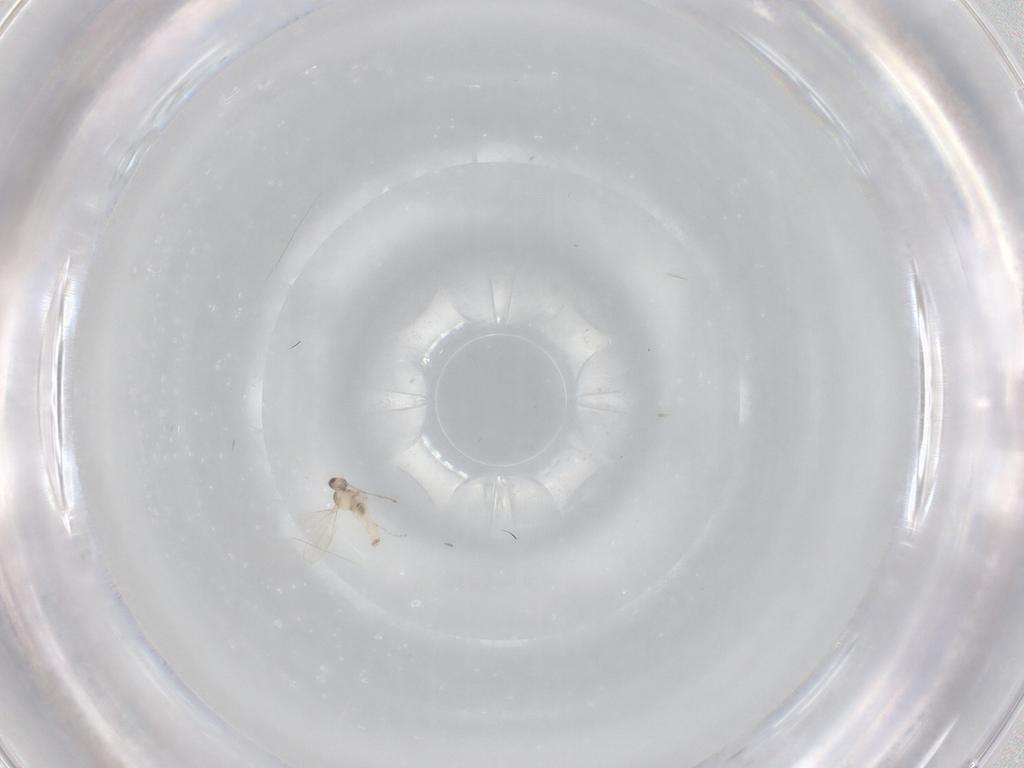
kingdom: Animalia
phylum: Arthropoda
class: Insecta
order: Diptera
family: Cecidomyiidae
